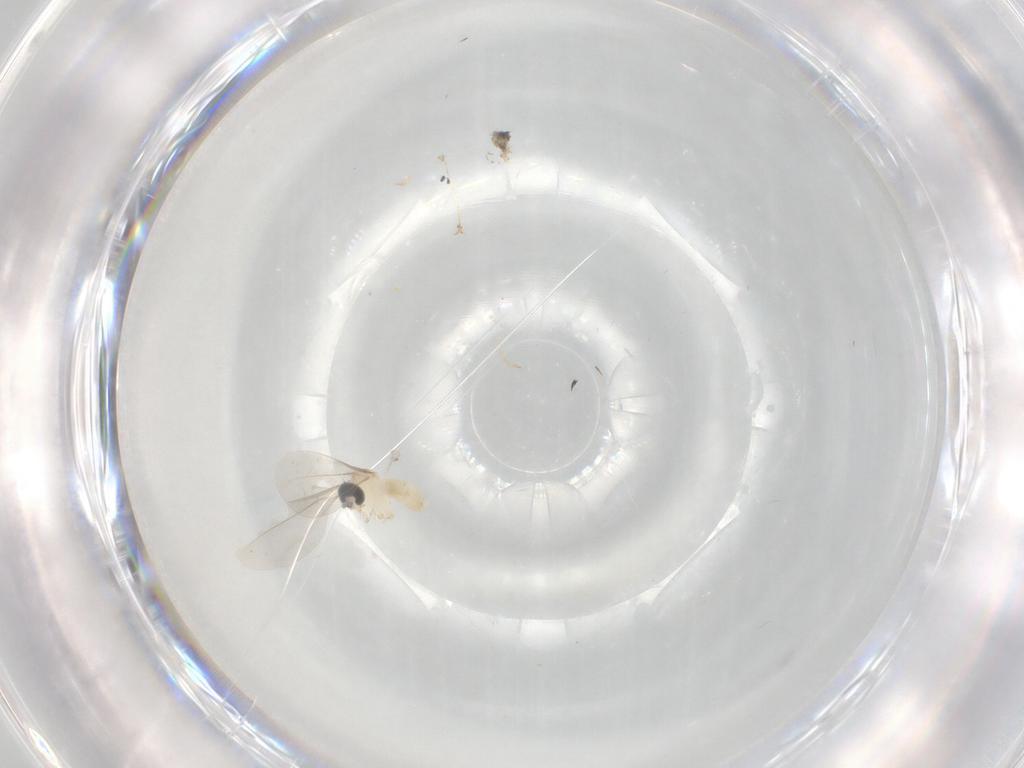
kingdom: Animalia
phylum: Arthropoda
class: Insecta
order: Diptera
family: Cecidomyiidae
